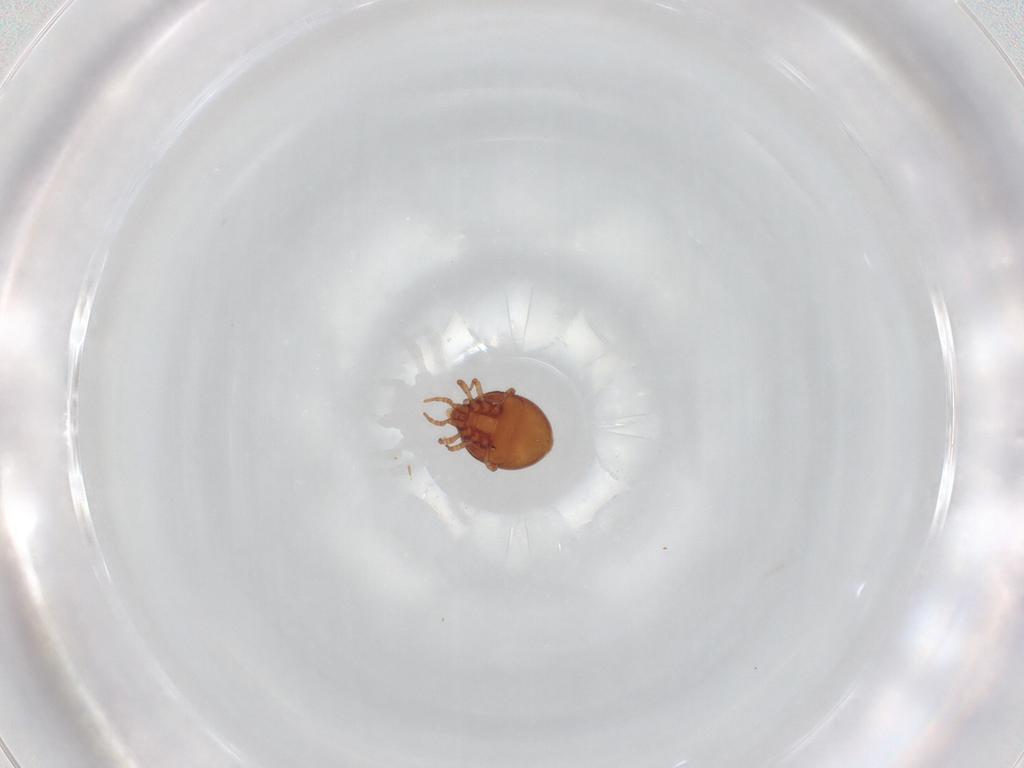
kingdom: Animalia
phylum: Arthropoda
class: Arachnida
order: Mesostigmata
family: Dinychidae
